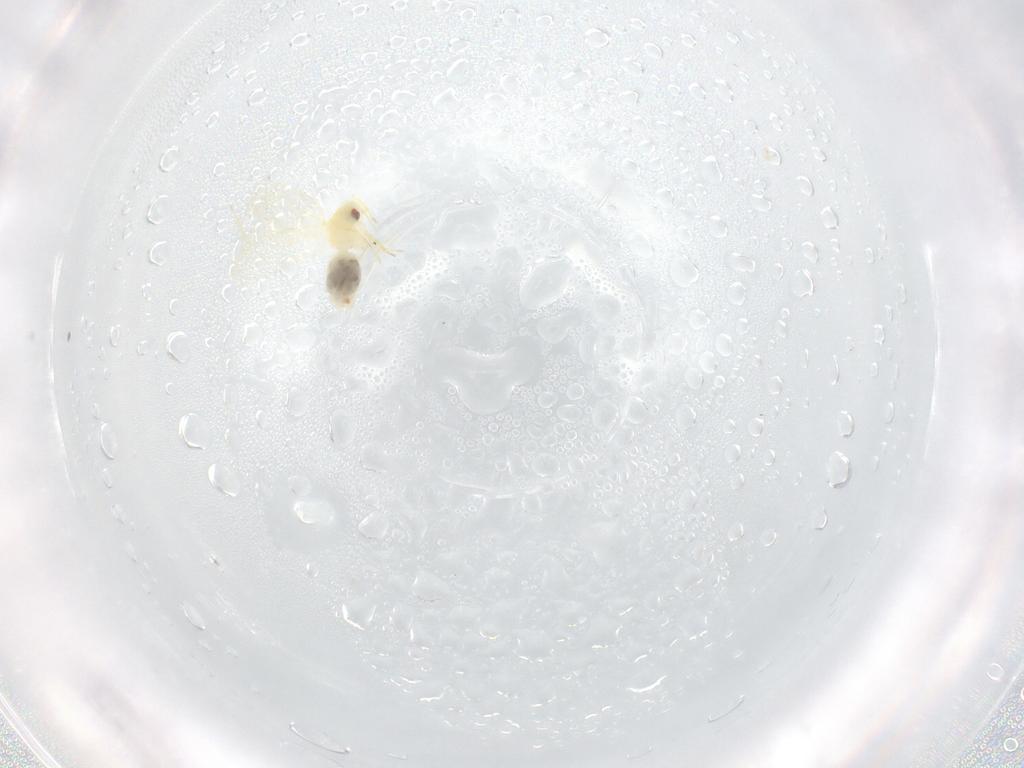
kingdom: Animalia
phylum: Arthropoda
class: Insecta
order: Hemiptera
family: Aleyrodidae
